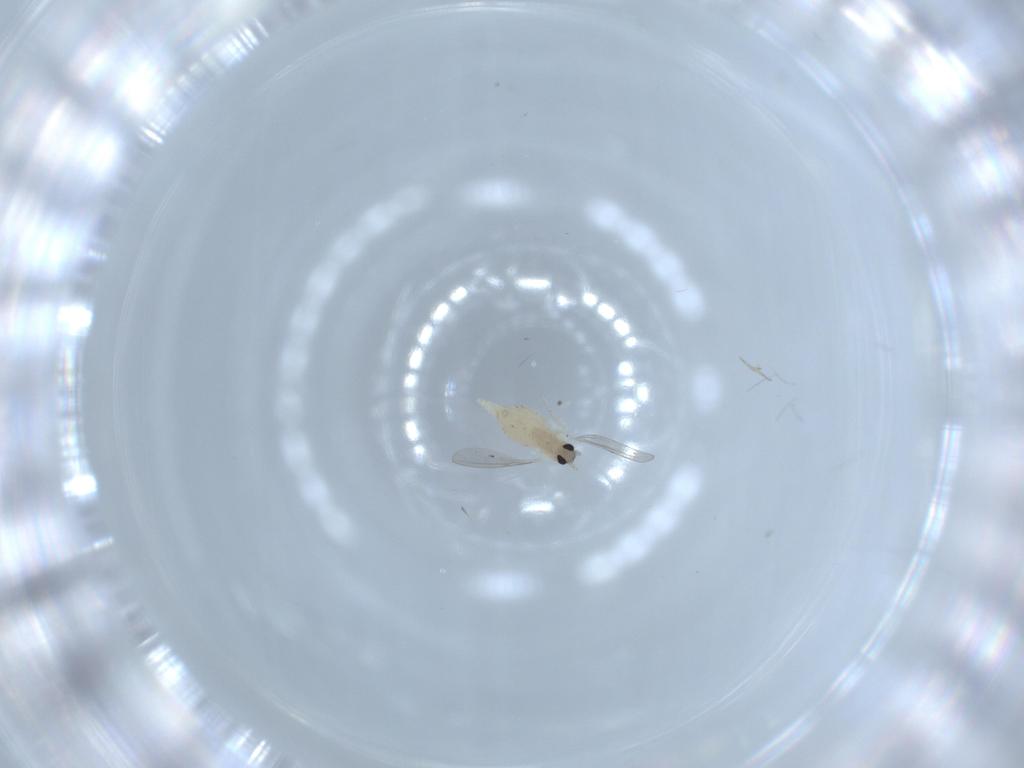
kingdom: Animalia
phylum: Arthropoda
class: Insecta
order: Diptera
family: Cecidomyiidae
